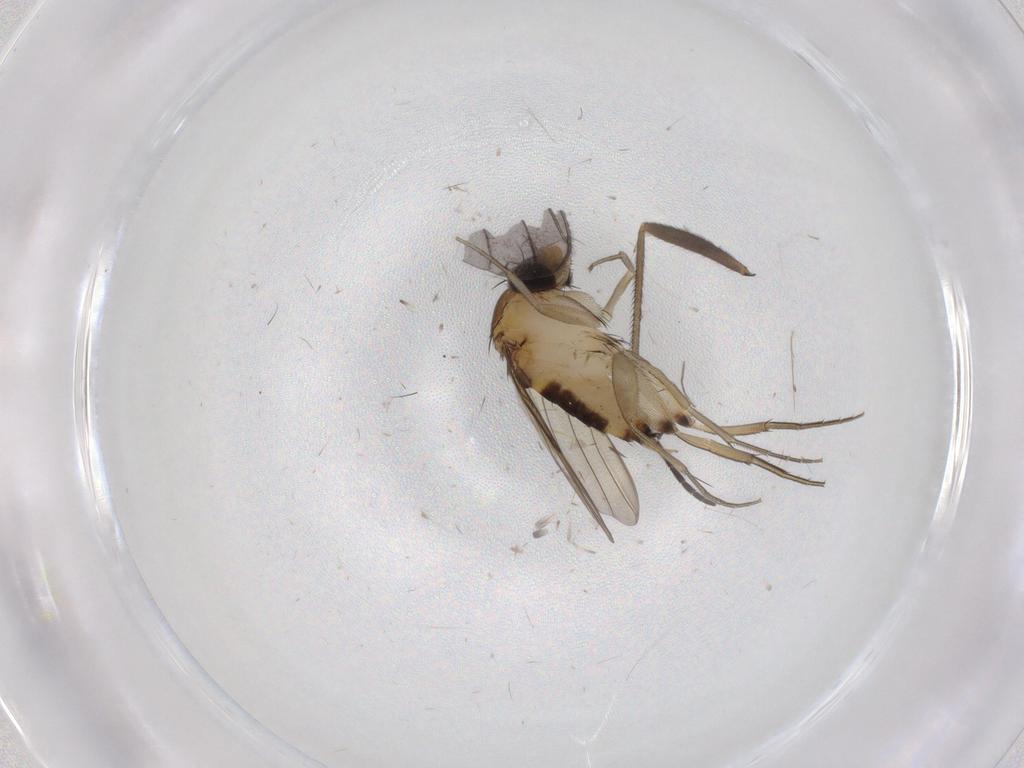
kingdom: Animalia
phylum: Arthropoda
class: Insecta
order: Diptera
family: Phoridae
